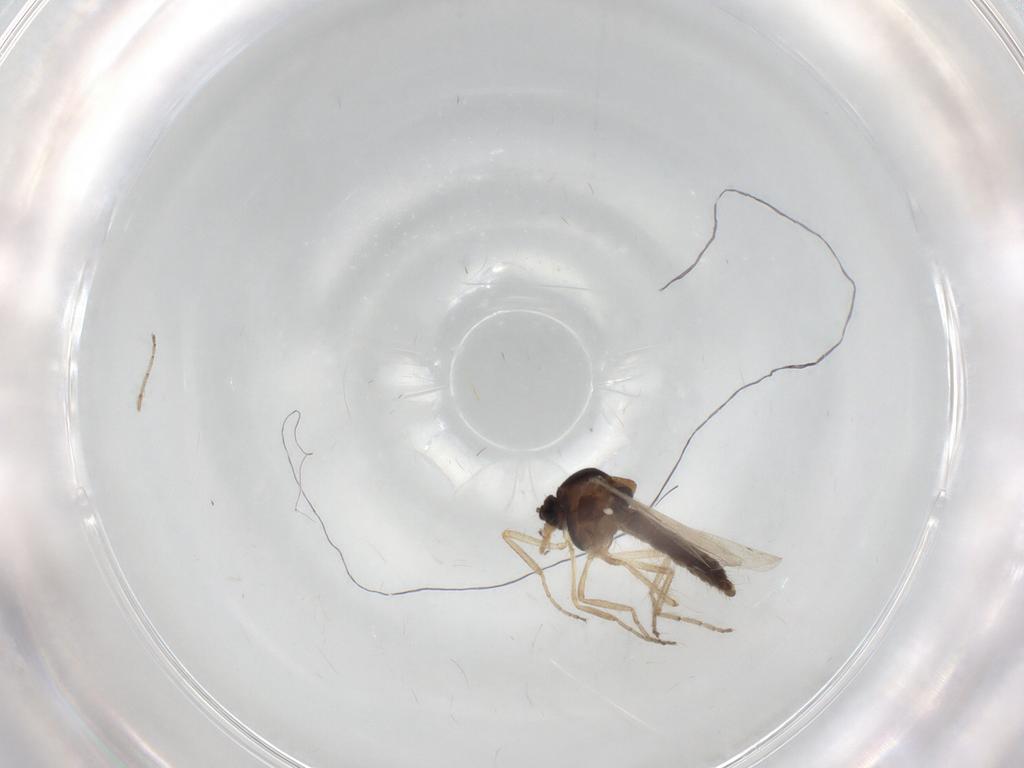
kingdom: Animalia
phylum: Arthropoda
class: Insecta
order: Diptera
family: Ceratopogonidae
